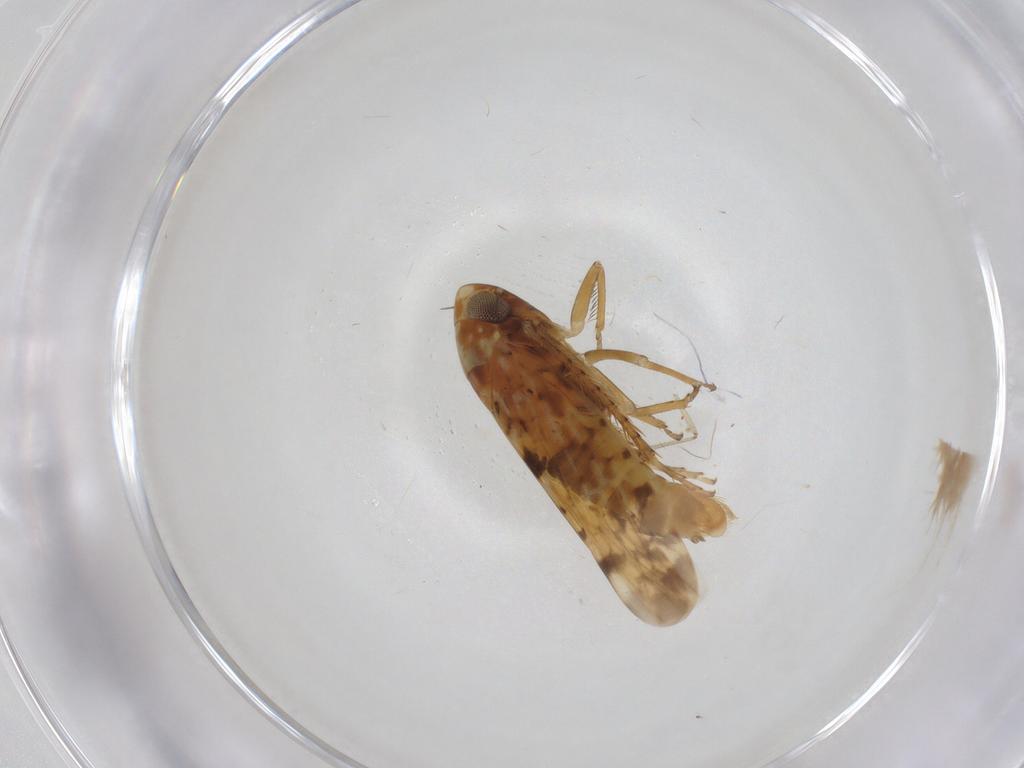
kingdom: Animalia
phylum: Arthropoda
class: Insecta
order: Hemiptera
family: Cicadellidae
